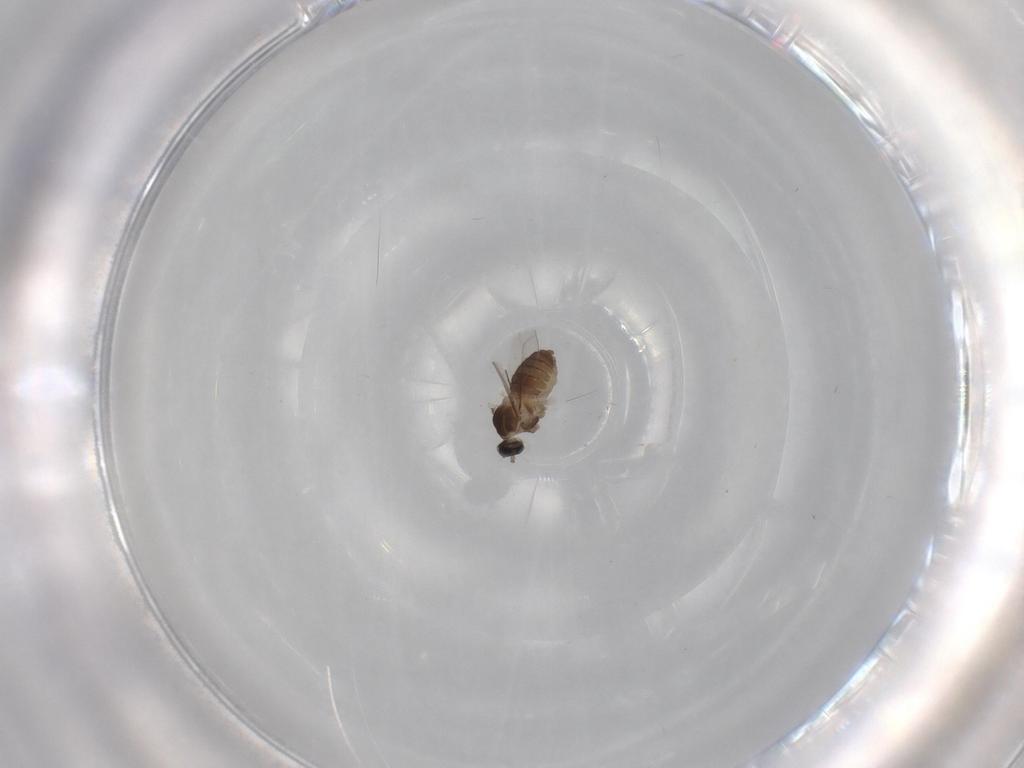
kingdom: Animalia
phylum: Arthropoda
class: Insecta
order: Diptera
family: Cecidomyiidae
